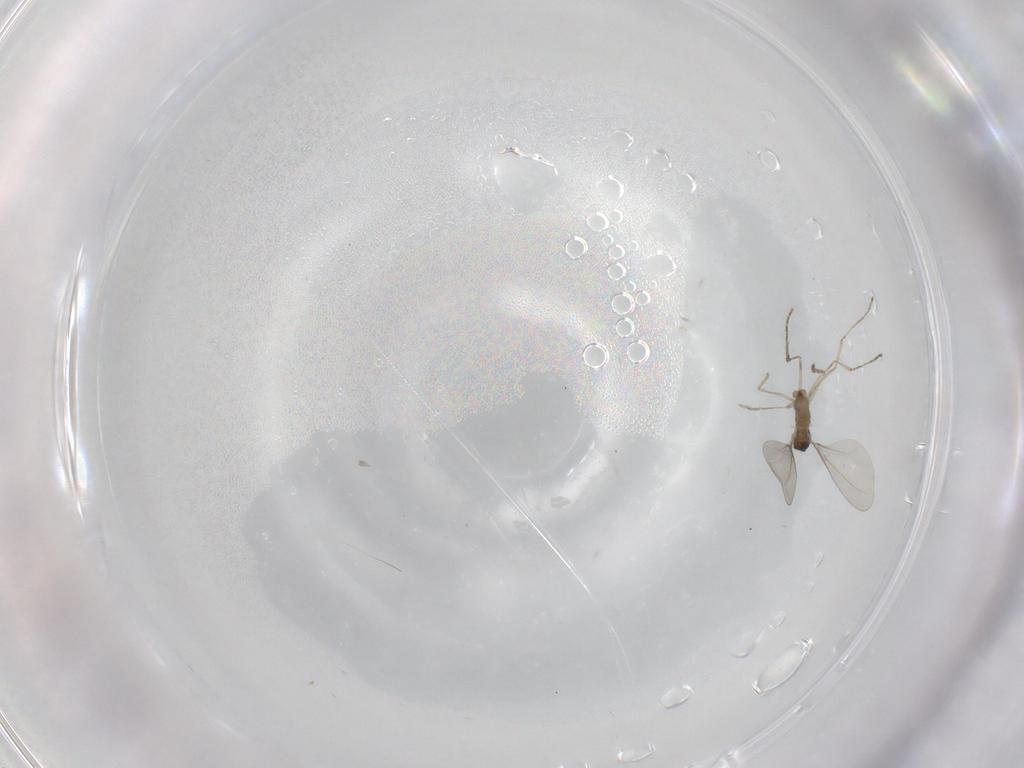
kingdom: Animalia
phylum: Arthropoda
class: Insecta
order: Diptera
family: Cecidomyiidae
